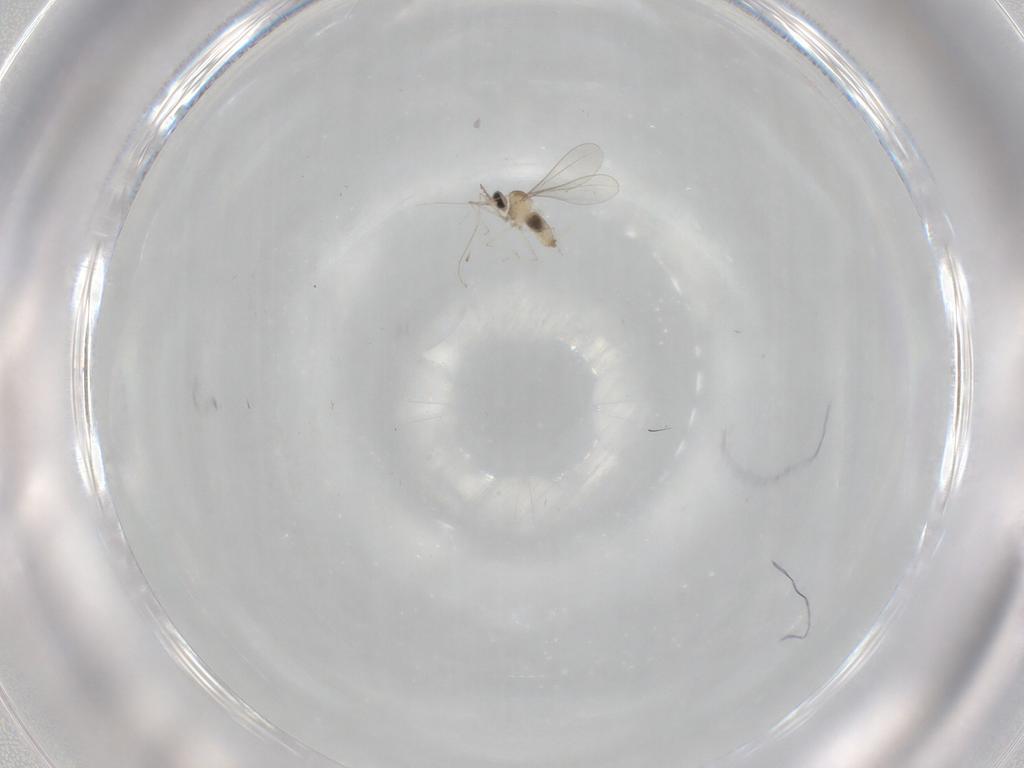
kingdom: Animalia
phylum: Arthropoda
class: Insecta
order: Diptera
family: Cecidomyiidae
